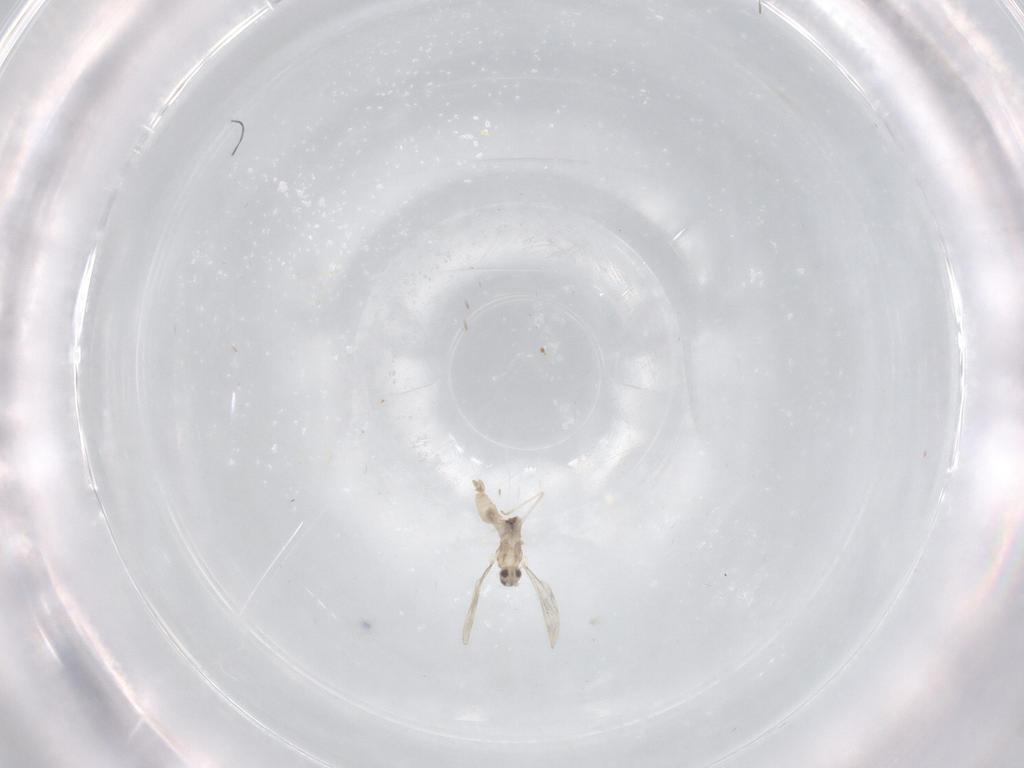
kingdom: Animalia
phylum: Arthropoda
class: Insecta
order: Diptera
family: Cecidomyiidae
